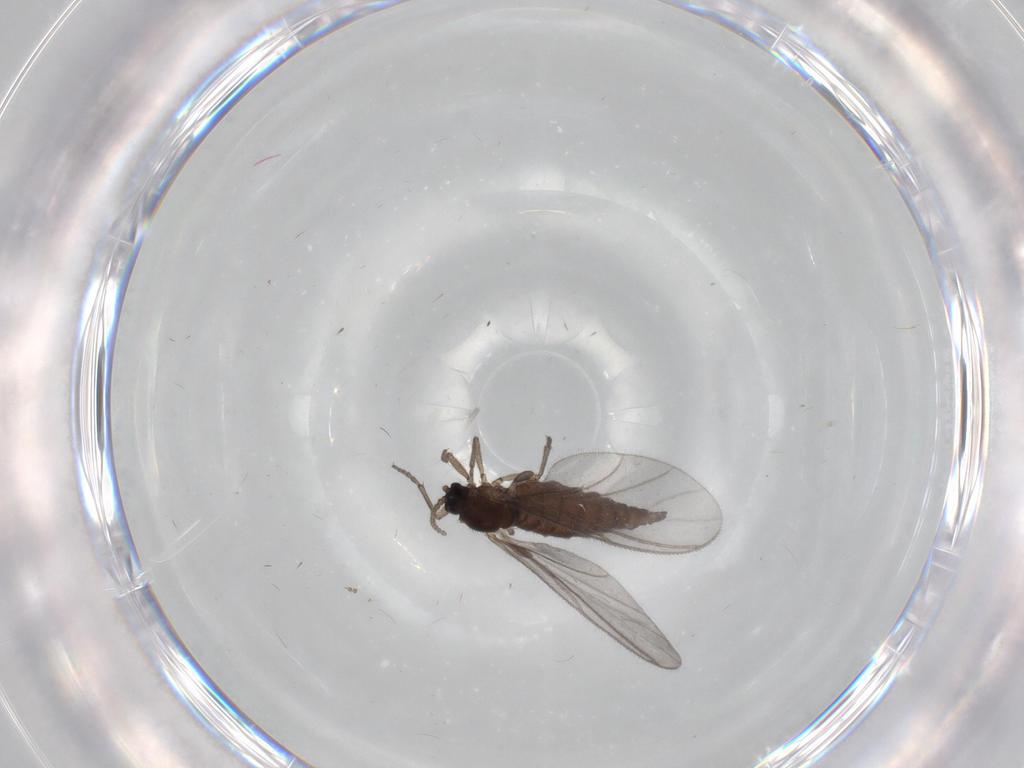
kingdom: Animalia
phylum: Arthropoda
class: Insecta
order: Diptera
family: Sciaridae
